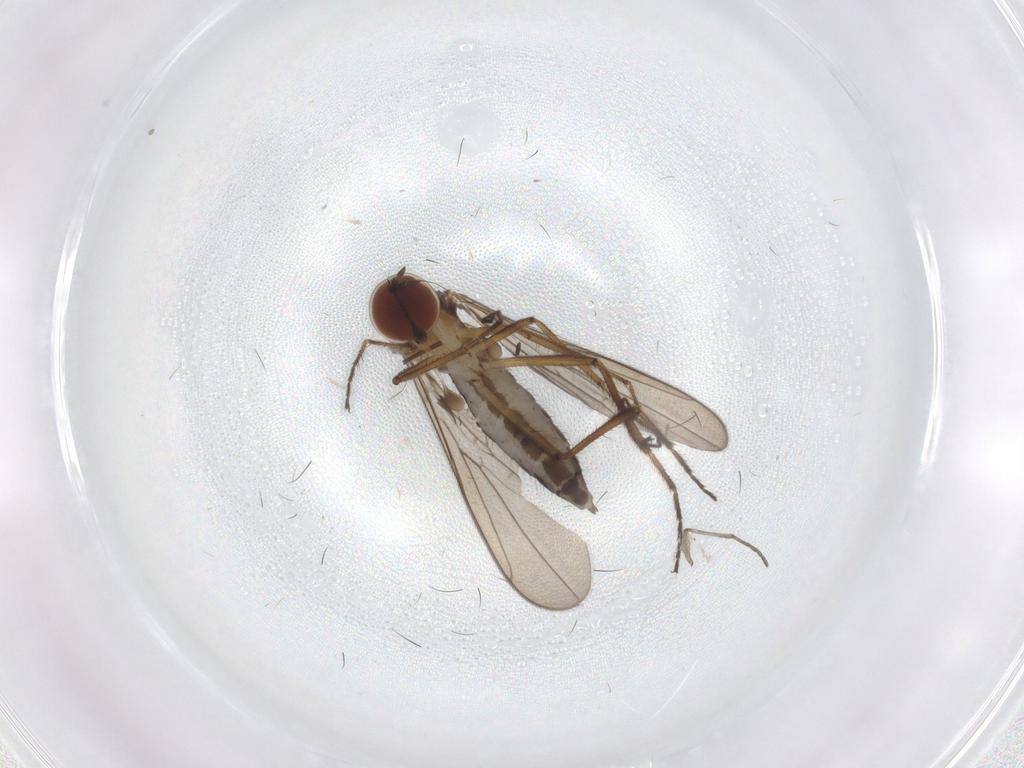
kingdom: Animalia
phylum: Arthropoda
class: Insecta
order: Diptera
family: Hybotidae
